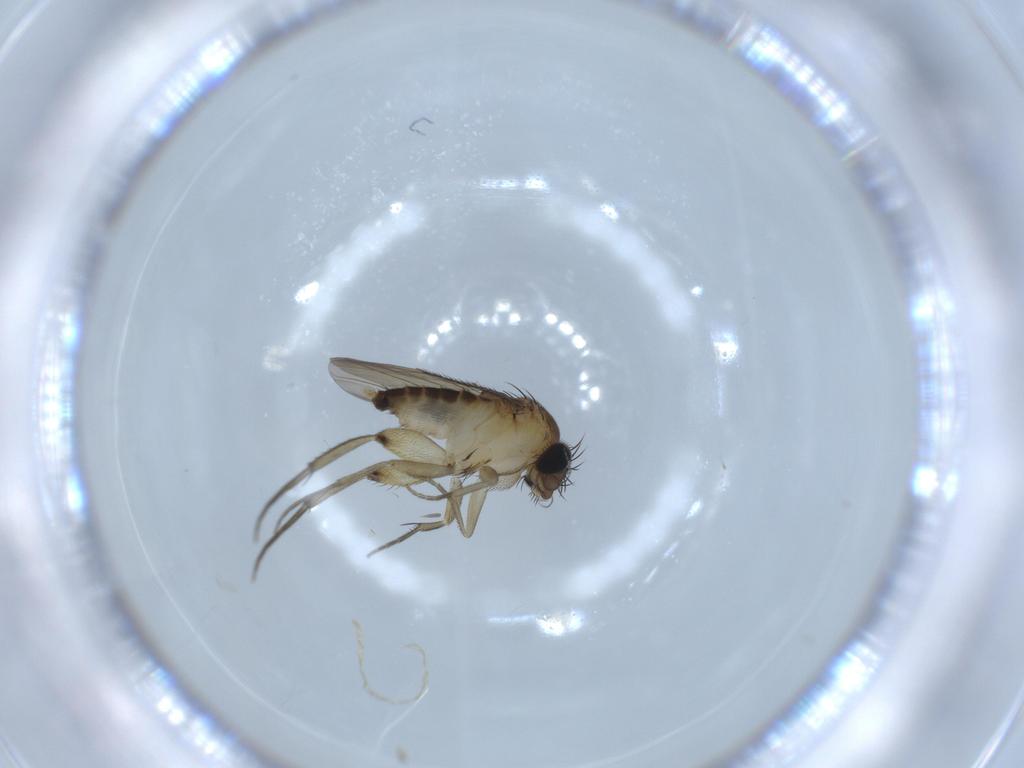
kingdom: Animalia
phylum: Arthropoda
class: Insecta
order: Diptera
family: Phoridae
